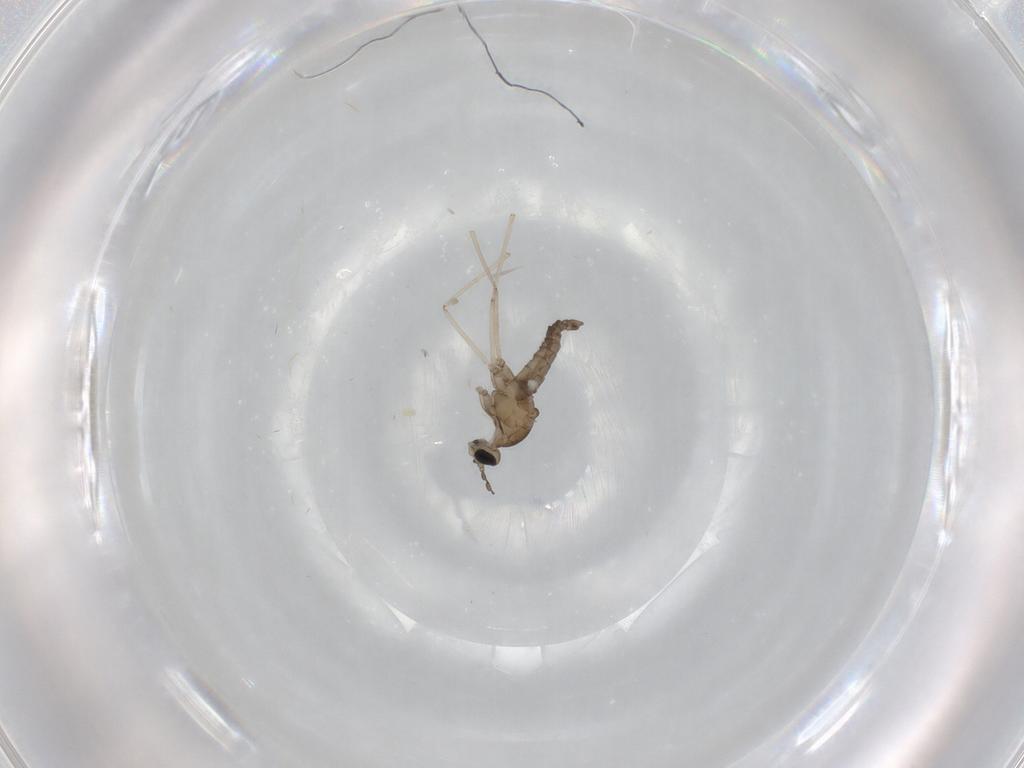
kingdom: Animalia
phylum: Arthropoda
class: Insecta
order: Diptera
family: Cecidomyiidae
